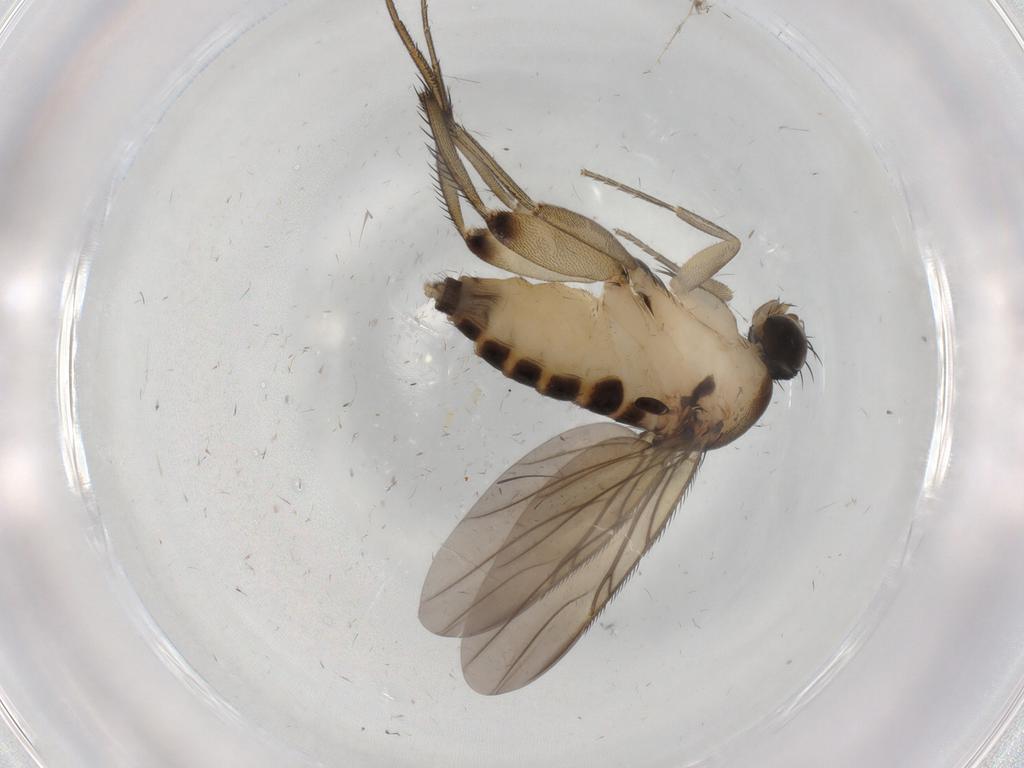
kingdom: Animalia
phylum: Arthropoda
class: Insecta
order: Diptera
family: Phoridae
